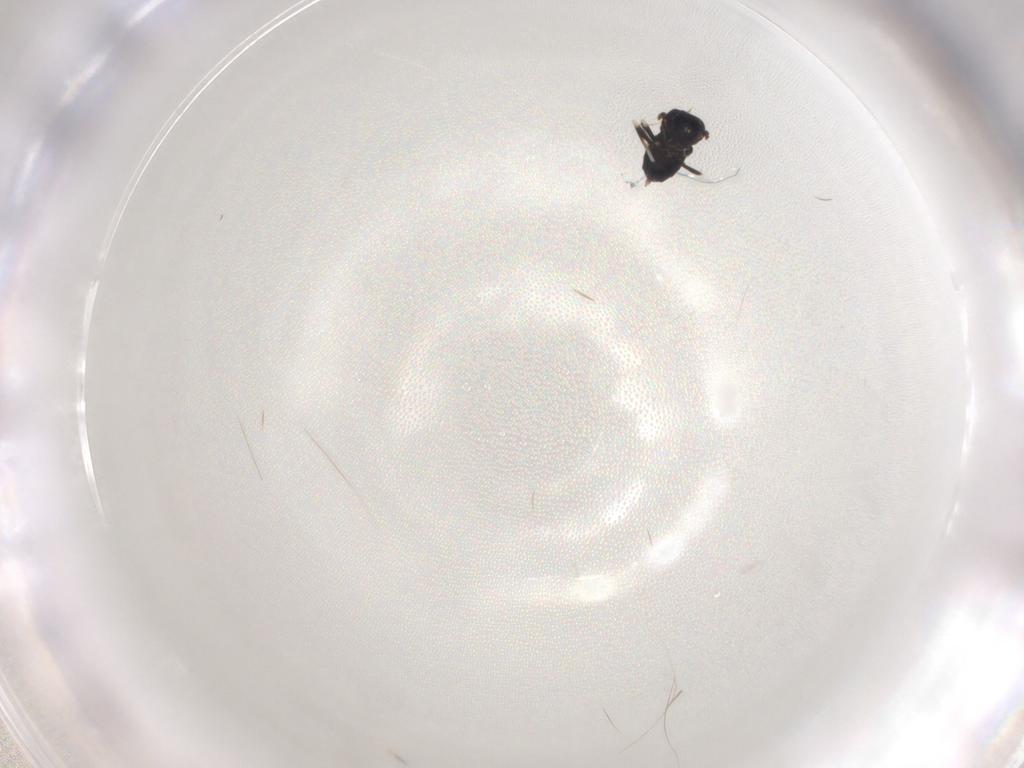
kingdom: Animalia
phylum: Arthropoda
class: Insecta
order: Hymenoptera
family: Eulophidae
